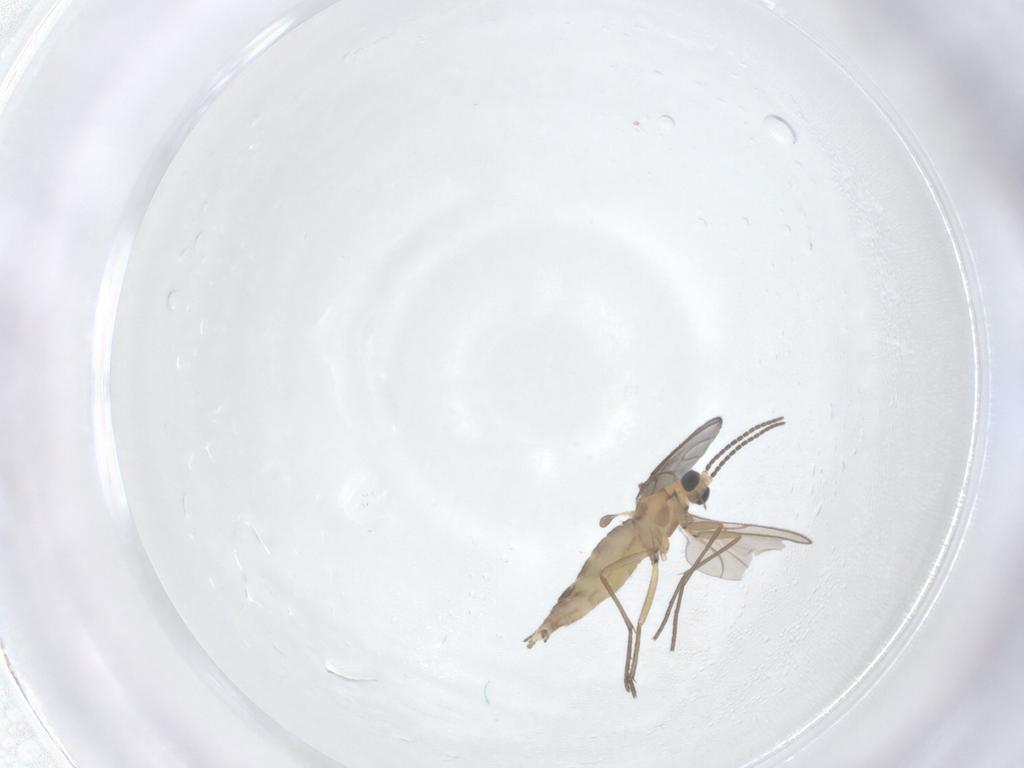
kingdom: Animalia
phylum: Arthropoda
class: Insecta
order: Diptera
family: Sciaridae
